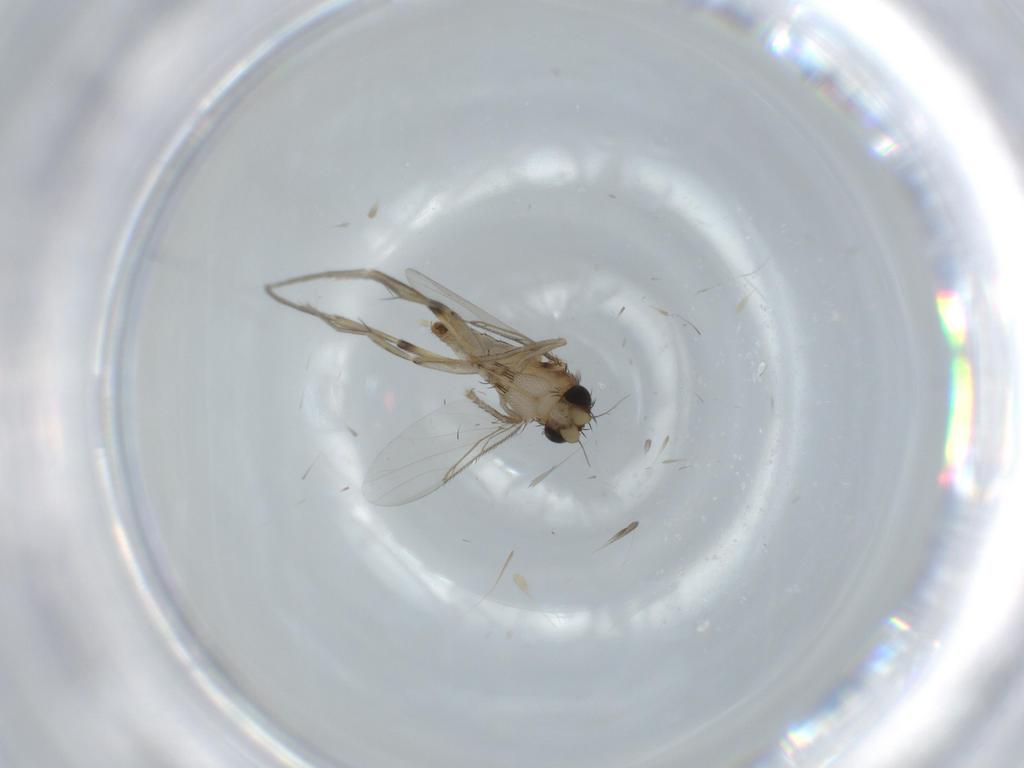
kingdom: Animalia
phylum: Arthropoda
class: Insecta
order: Diptera
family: Phoridae
